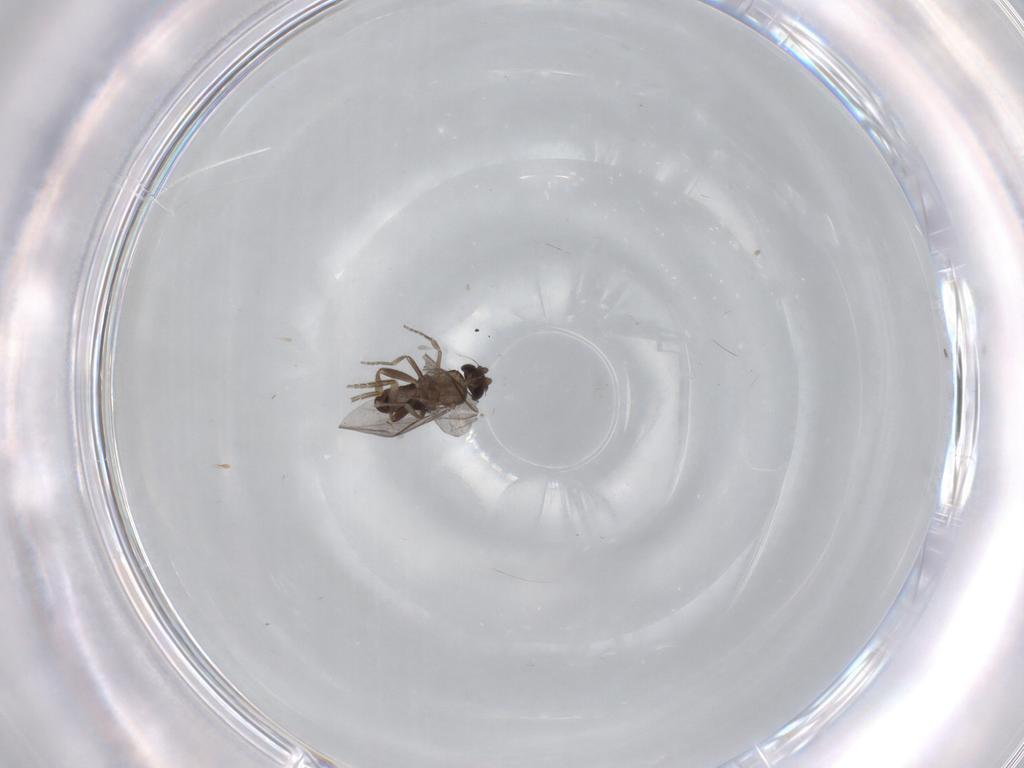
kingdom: Animalia
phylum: Arthropoda
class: Insecta
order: Diptera
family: Phoridae
